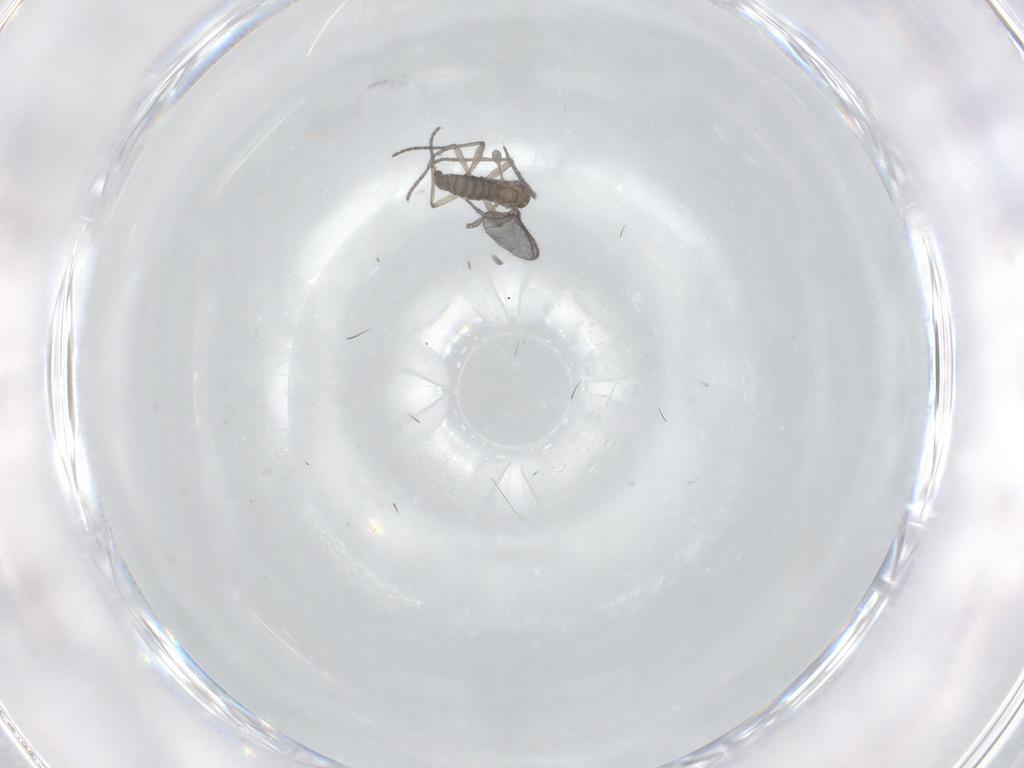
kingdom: Animalia
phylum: Arthropoda
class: Insecta
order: Diptera
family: Sciaridae
